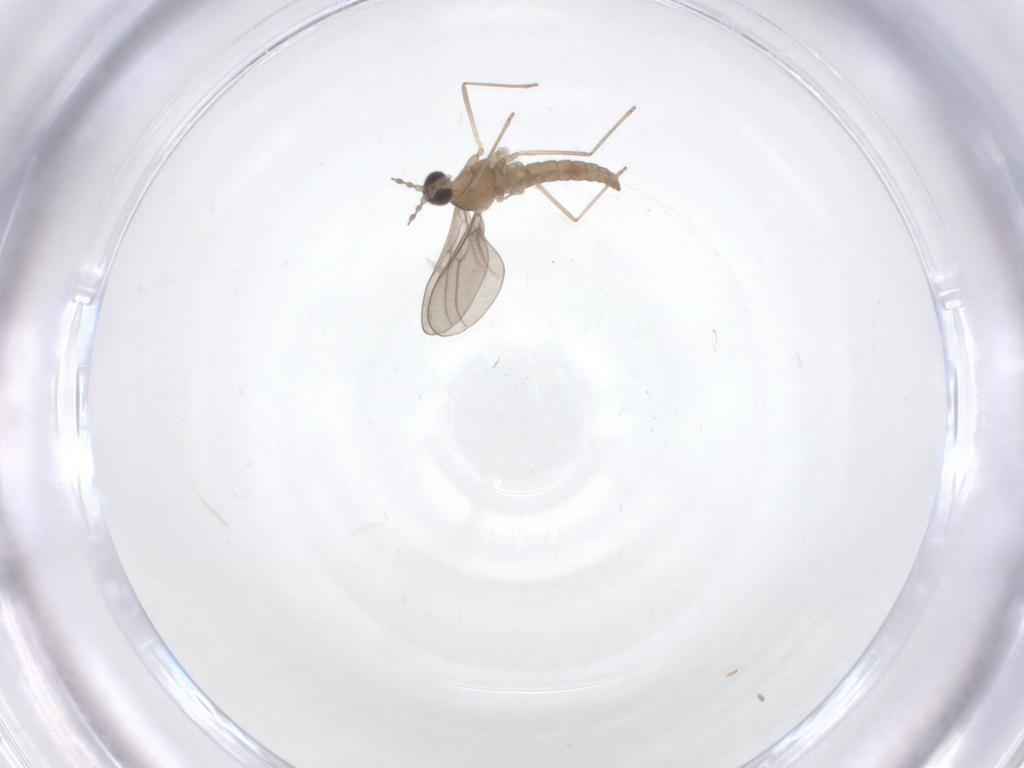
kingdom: Animalia
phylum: Arthropoda
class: Insecta
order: Diptera
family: Cecidomyiidae
